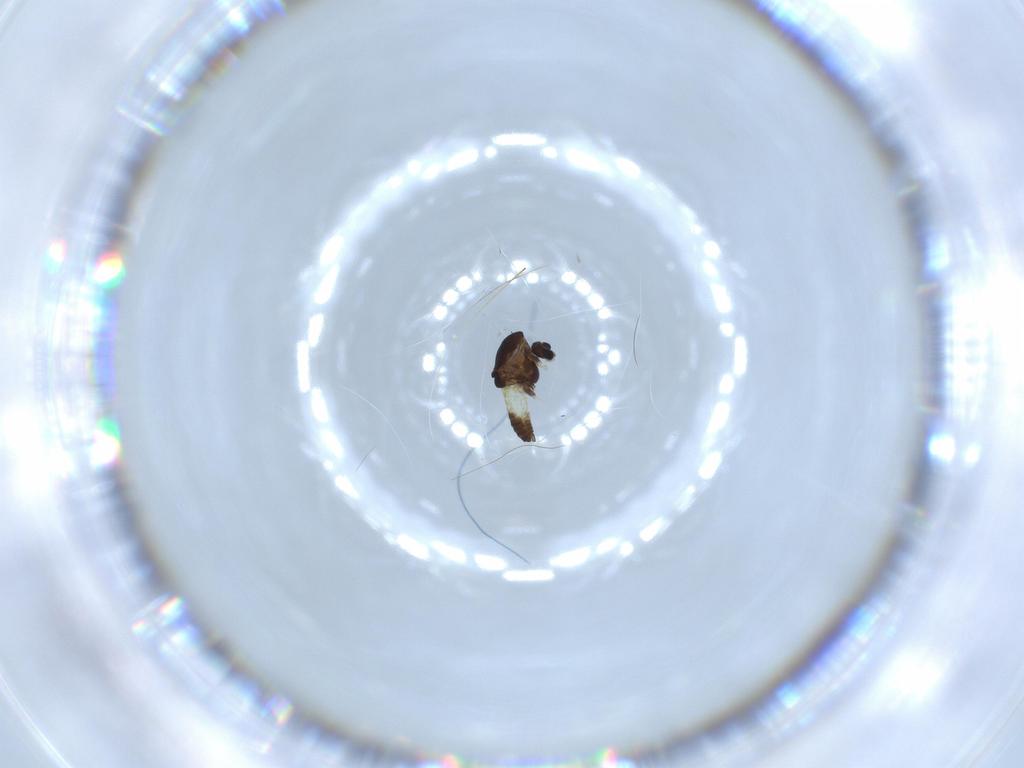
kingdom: Animalia
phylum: Arthropoda
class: Insecta
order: Diptera
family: Chironomidae
